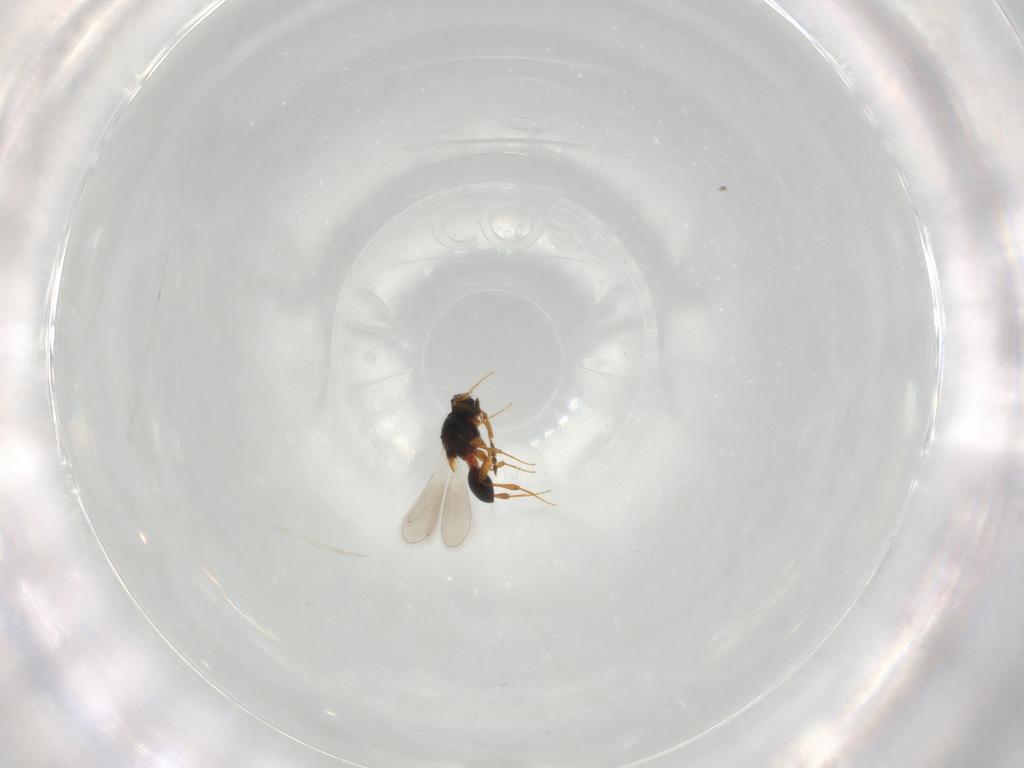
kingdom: Animalia
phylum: Arthropoda
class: Insecta
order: Hymenoptera
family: Platygastridae
